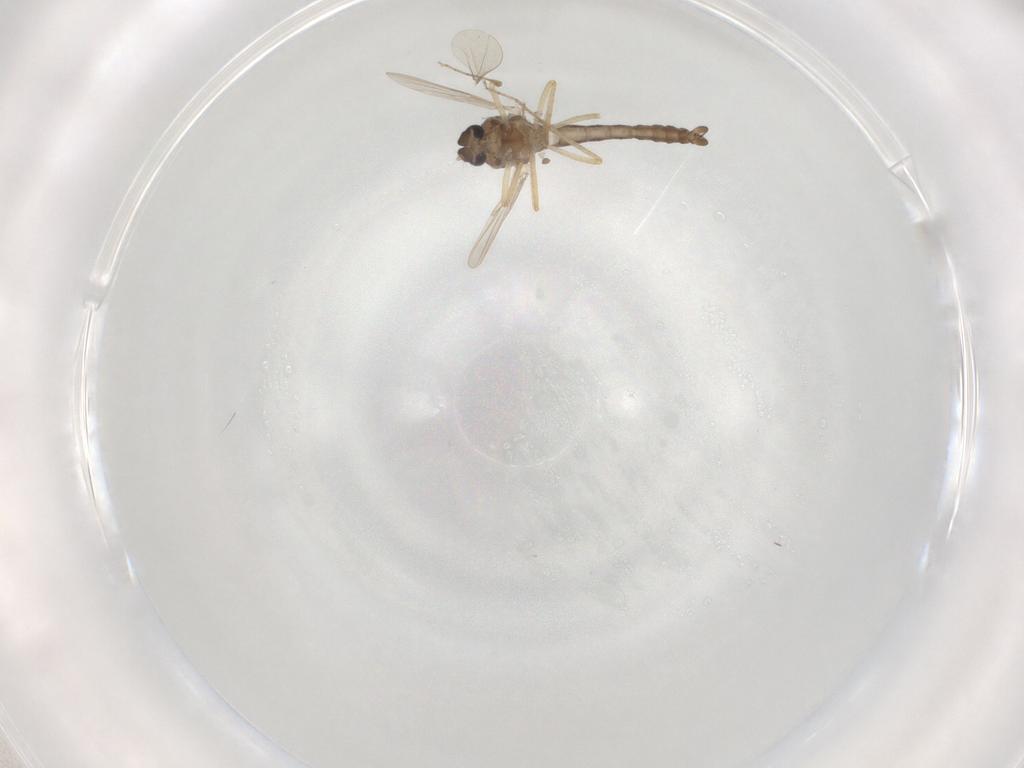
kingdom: Animalia
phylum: Arthropoda
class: Insecta
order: Diptera
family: Ceratopogonidae
